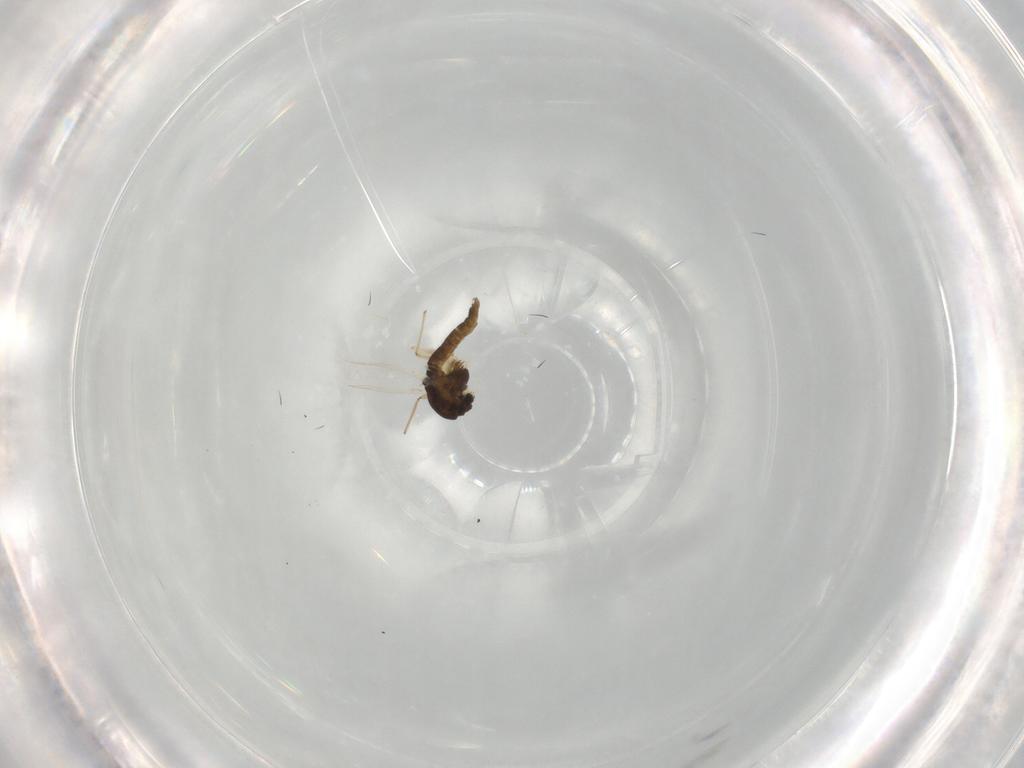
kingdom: Animalia
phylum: Arthropoda
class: Insecta
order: Diptera
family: Chironomidae
